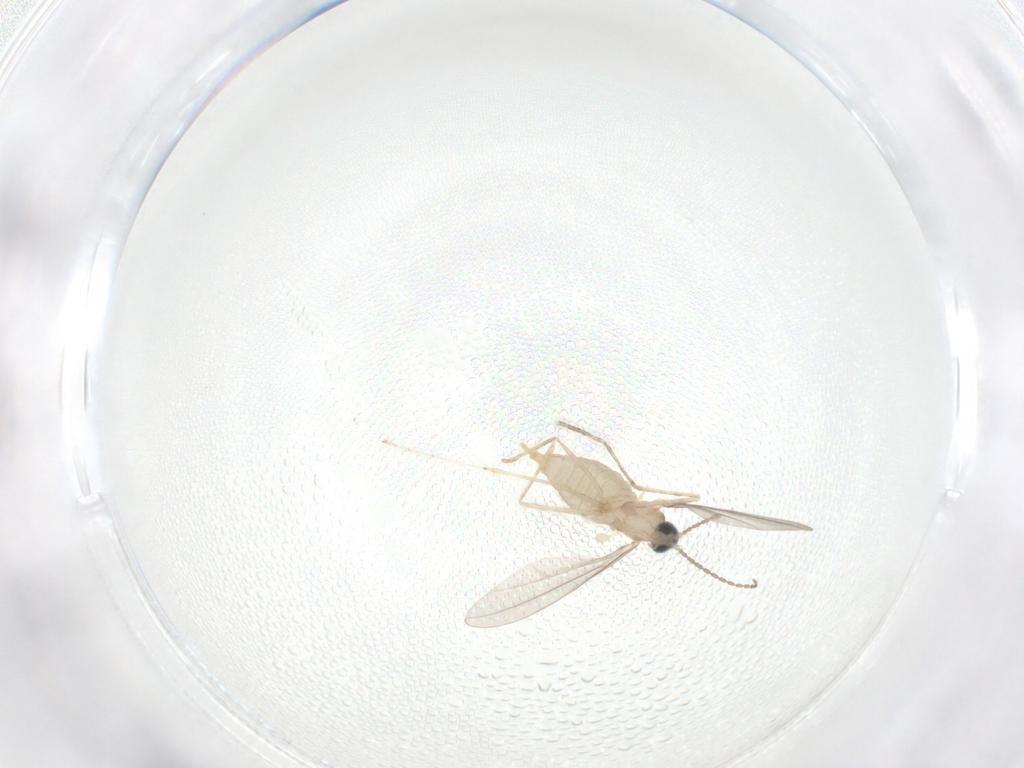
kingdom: Animalia
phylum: Arthropoda
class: Insecta
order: Diptera
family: Cecidomyiidae
